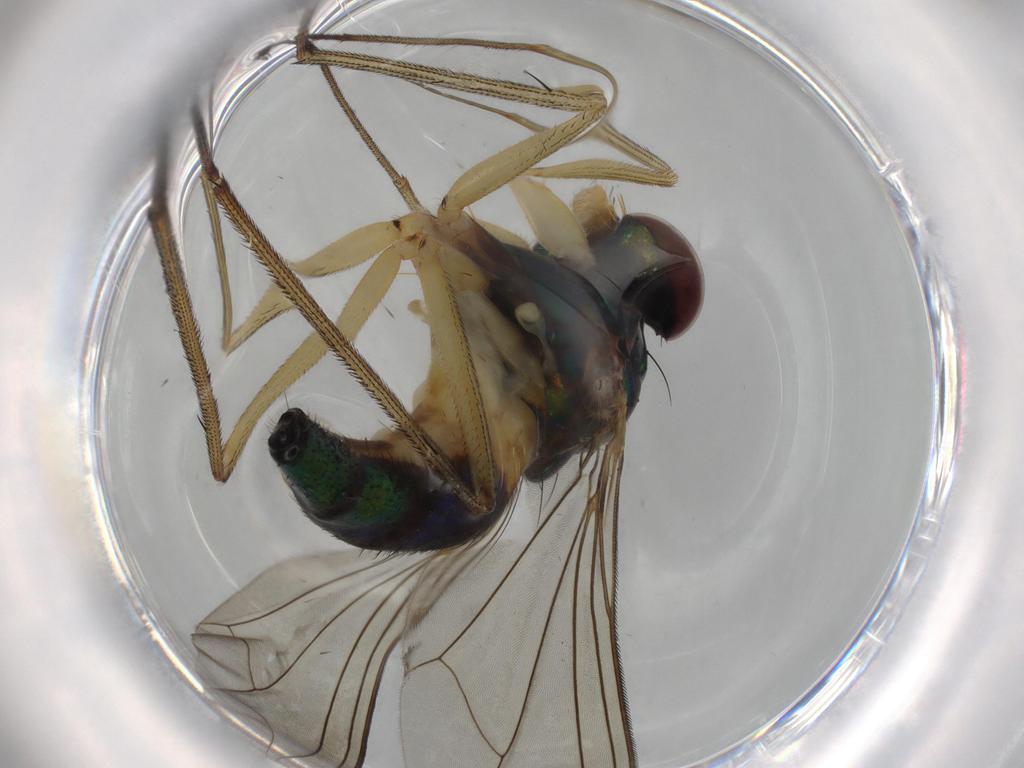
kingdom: Animalia
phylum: Arthropoda
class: Insecta
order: Diptera
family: Dolichopodidae
